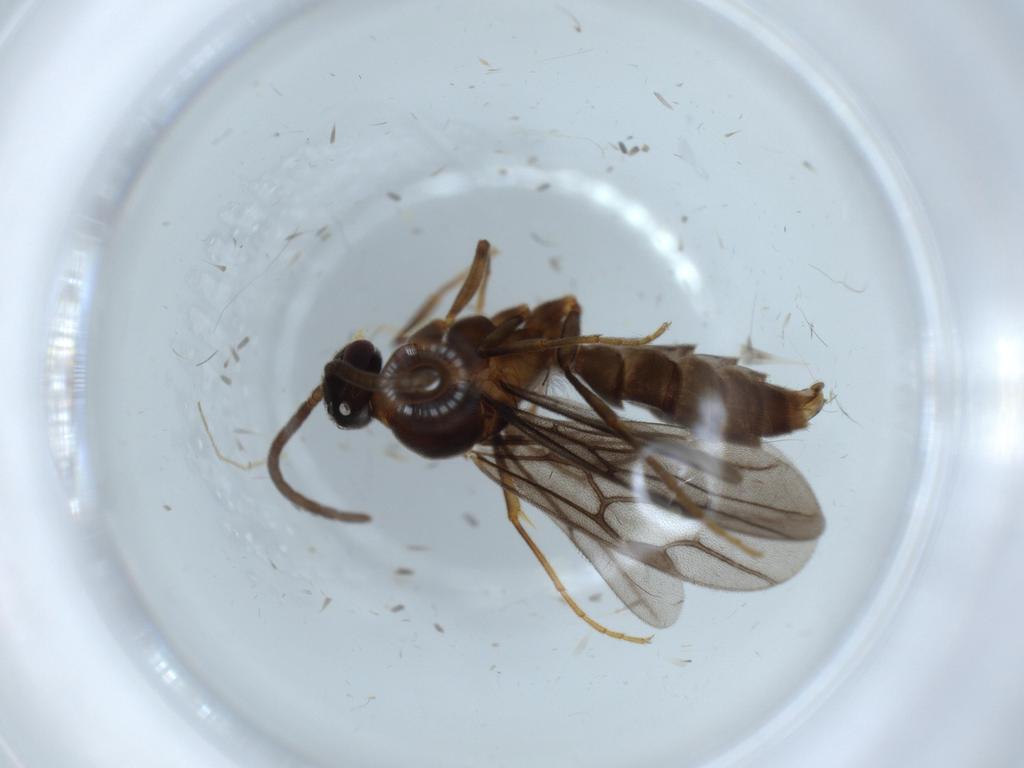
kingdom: Animalia
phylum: Arthropoda
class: Insecta
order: Hymenoptera
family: Formicidae
